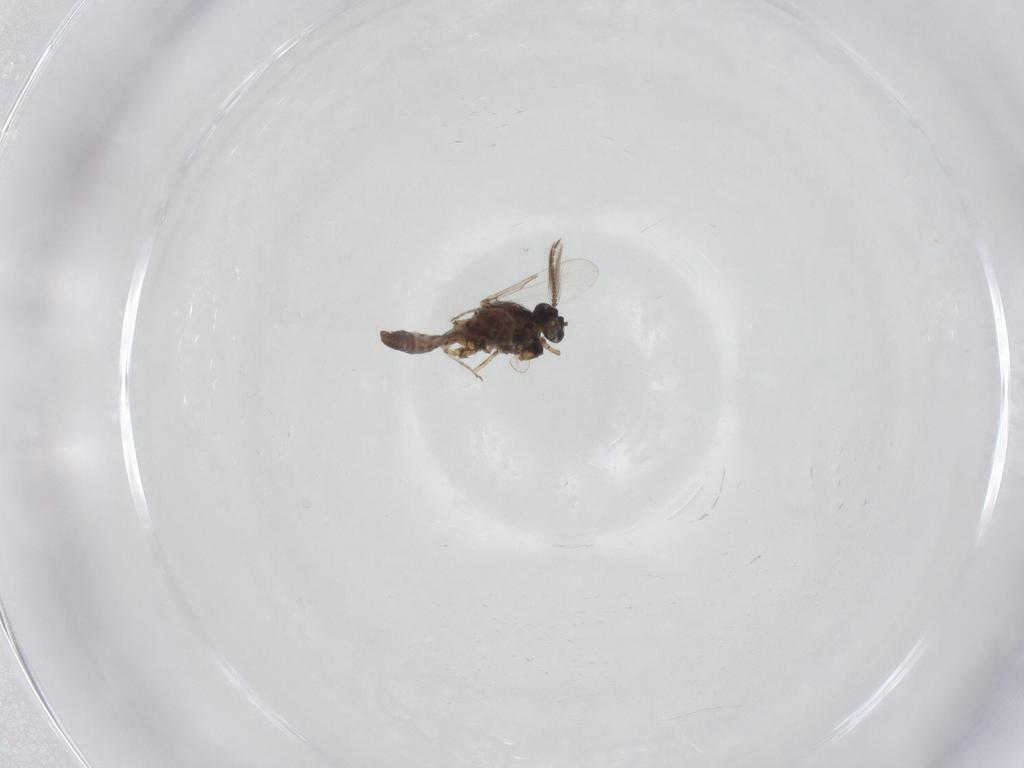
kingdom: Animalia
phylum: Arthropoda
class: Insecta
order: Diptera
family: Ceratopogonidae
